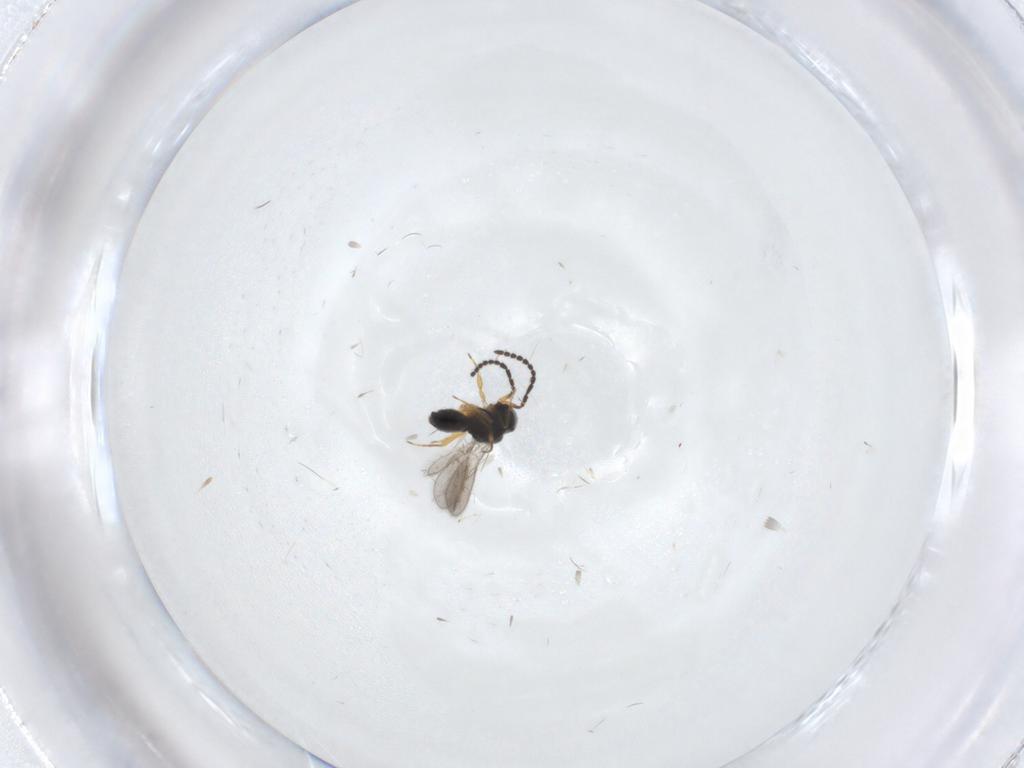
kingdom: Animalia
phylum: Arthropoda
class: Insecta
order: Hymenoptera
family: Scelionidae
